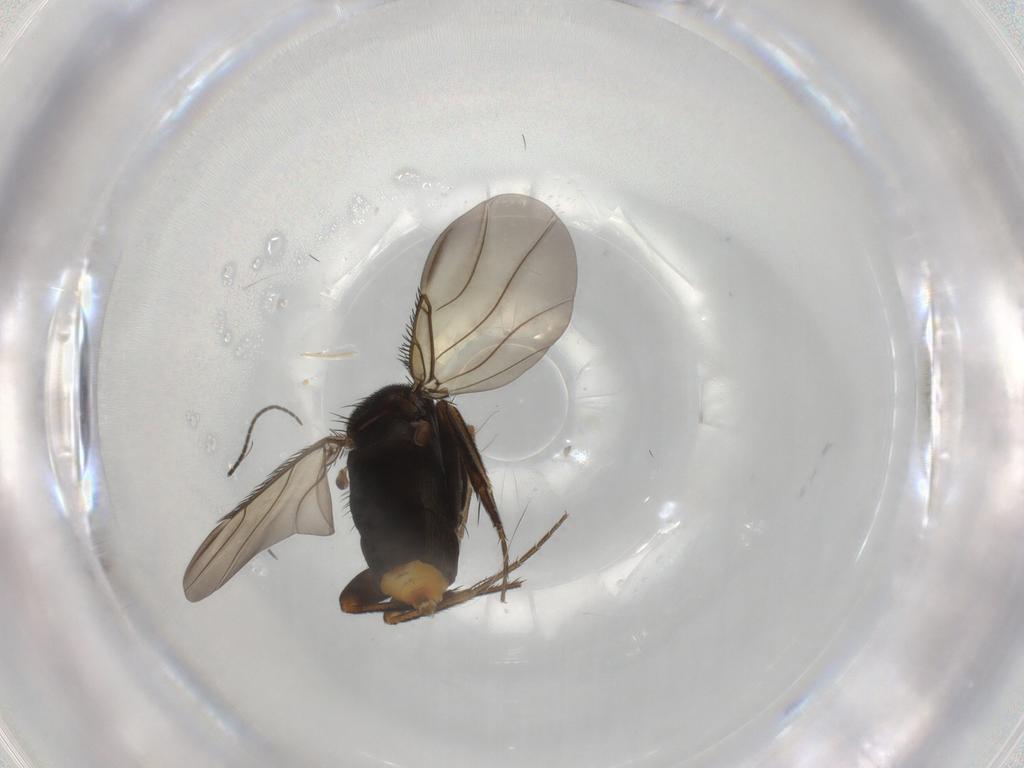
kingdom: Animalia
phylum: Arthropoda
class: Insecta
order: Diptera
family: Phoridae
